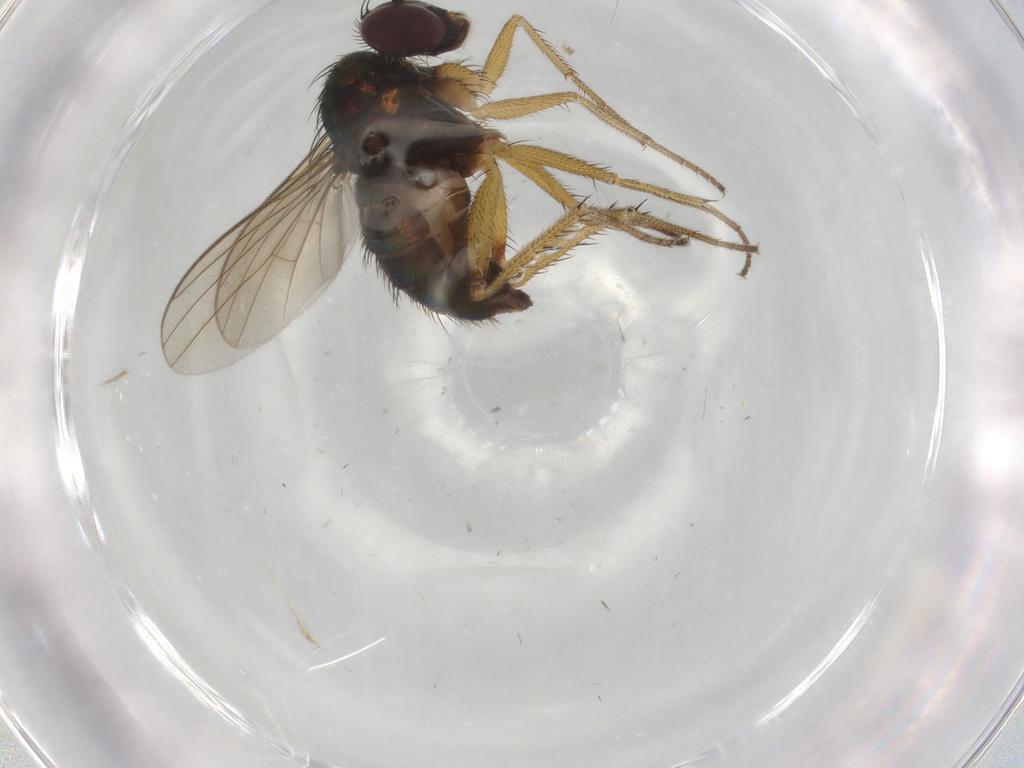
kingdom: Animalia
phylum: Arthropoda
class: Insecta
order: Diptera
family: Dolichopodidae
